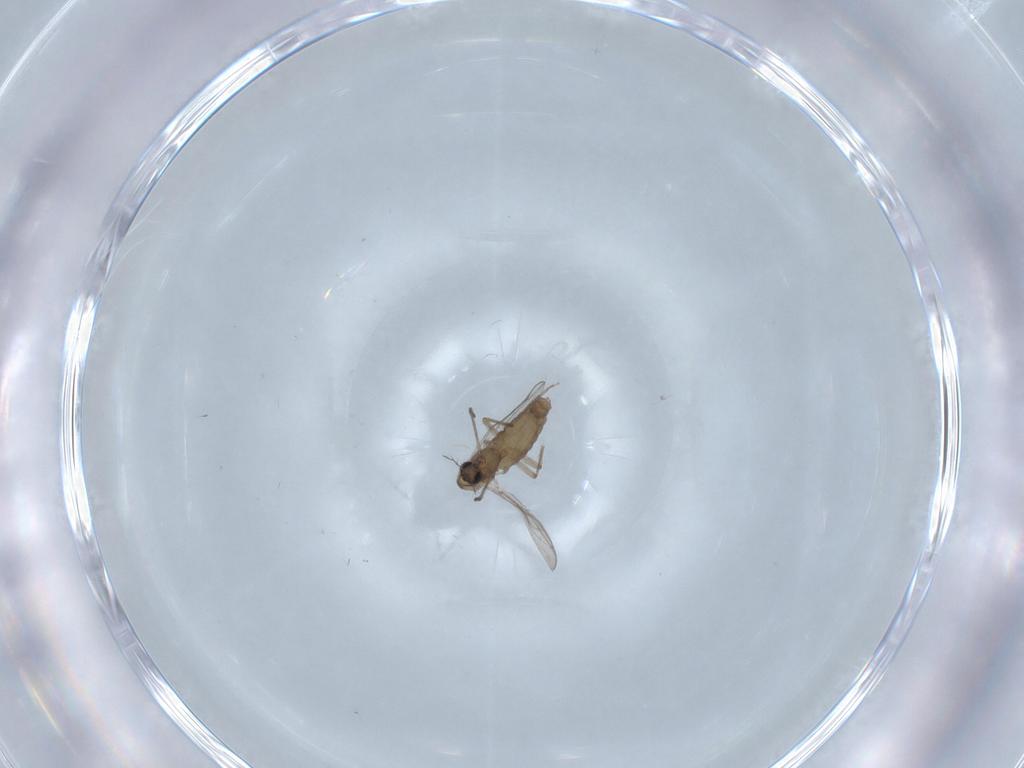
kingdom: Animalia
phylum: Arthropoda
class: Insecta
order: Diptera
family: Chironomidae
